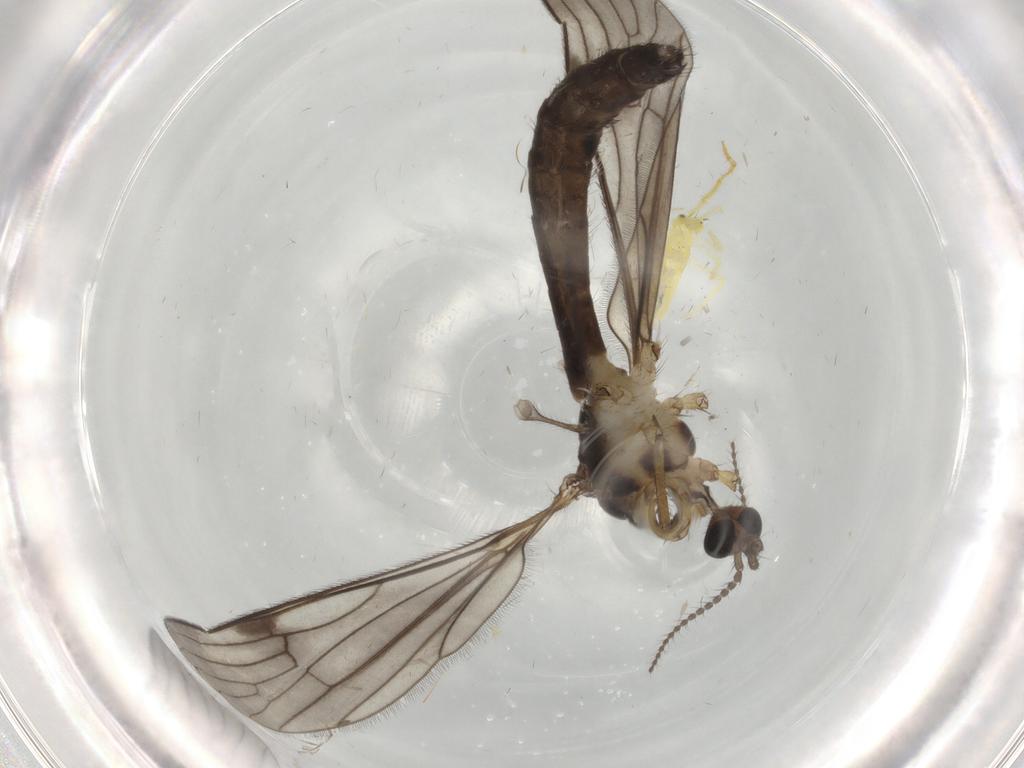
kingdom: Animalia
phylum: Arthropoda
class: Insecta
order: Diptera
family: Limoniidae
